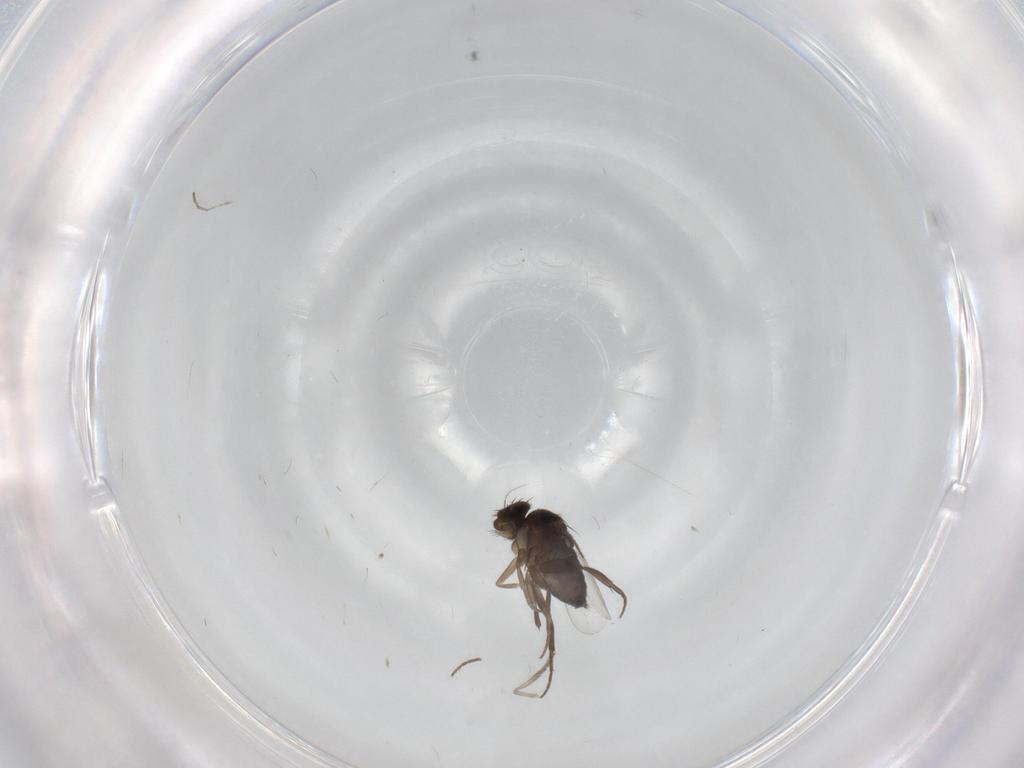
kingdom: Animalia
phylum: Arthropoda
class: Insecta
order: Diptera
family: Phoridae
